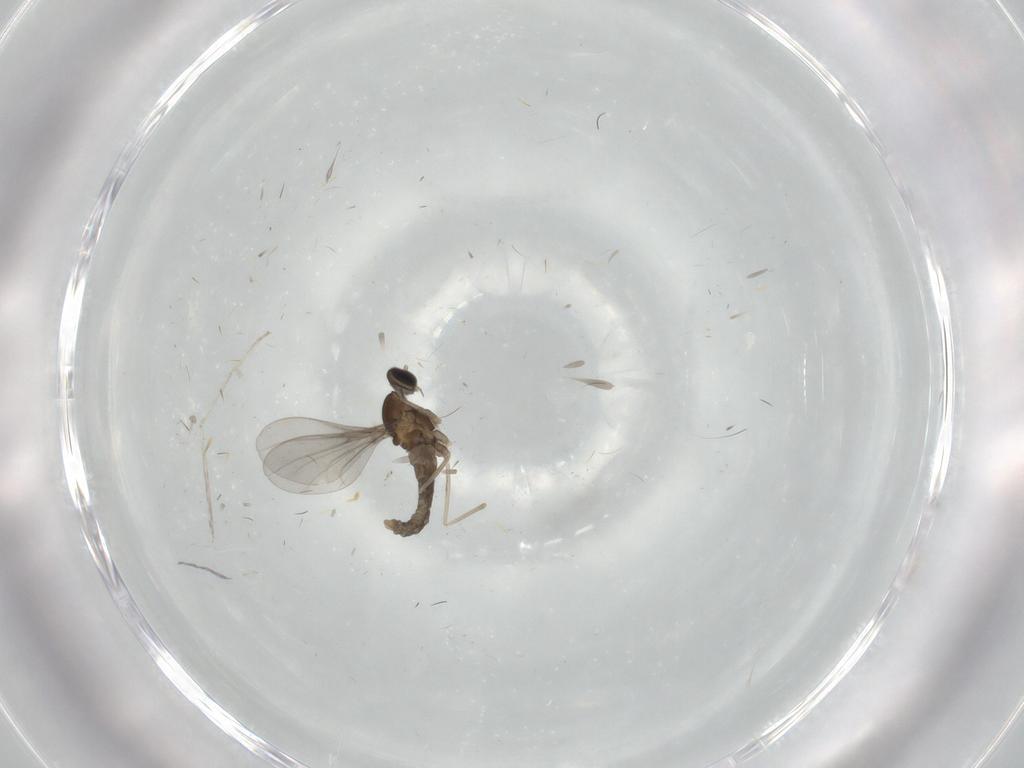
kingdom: Animalia
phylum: Arthropoda
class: Insecta
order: Diptera
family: Cecidomyiidae
